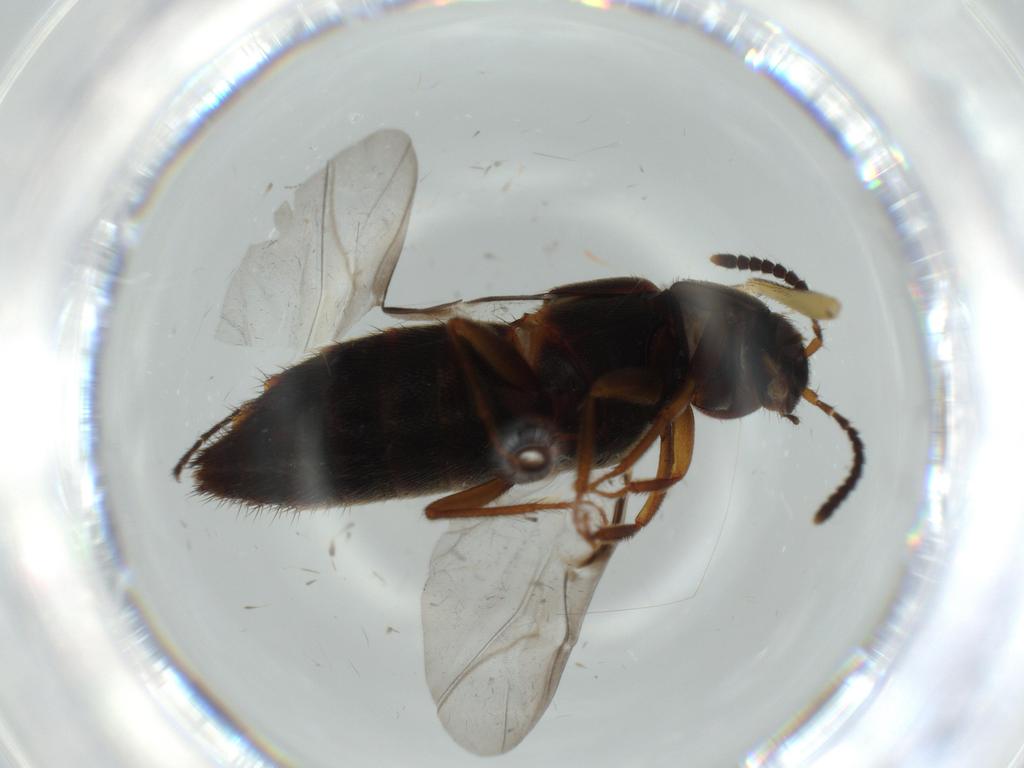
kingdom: Animalia
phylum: Arthropoda
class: Insecta
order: Coleoptera
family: Staphylinidae
